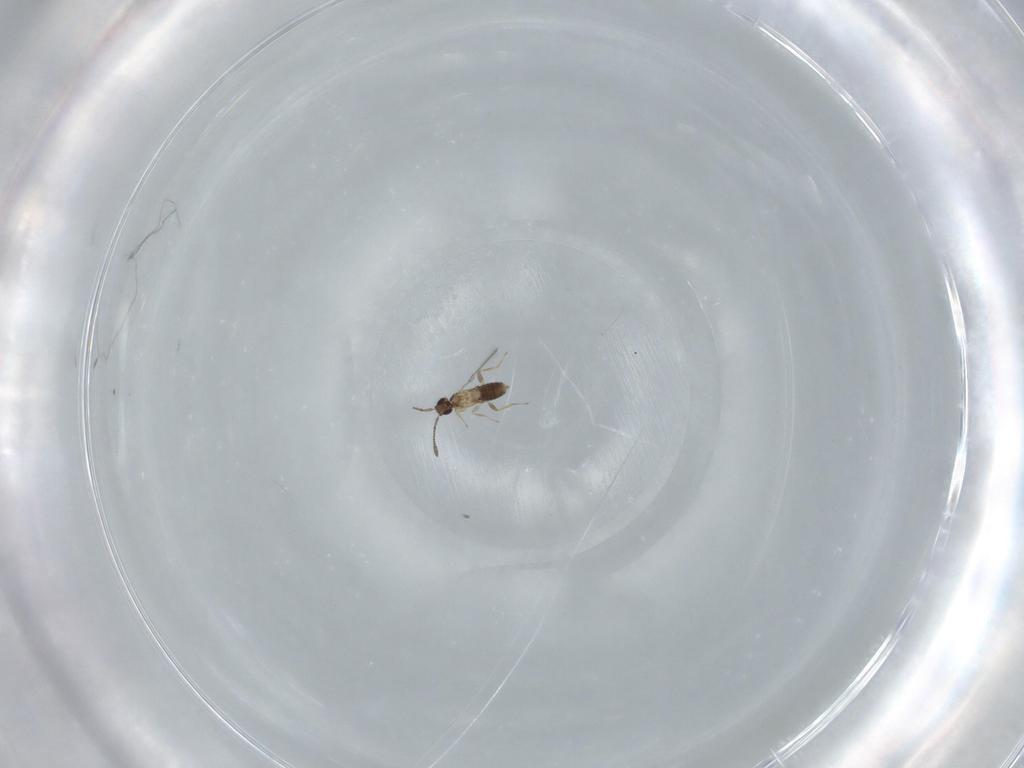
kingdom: Animalia
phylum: Arthropoda
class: Insecta
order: Hymenoptera
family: Mymaridae
